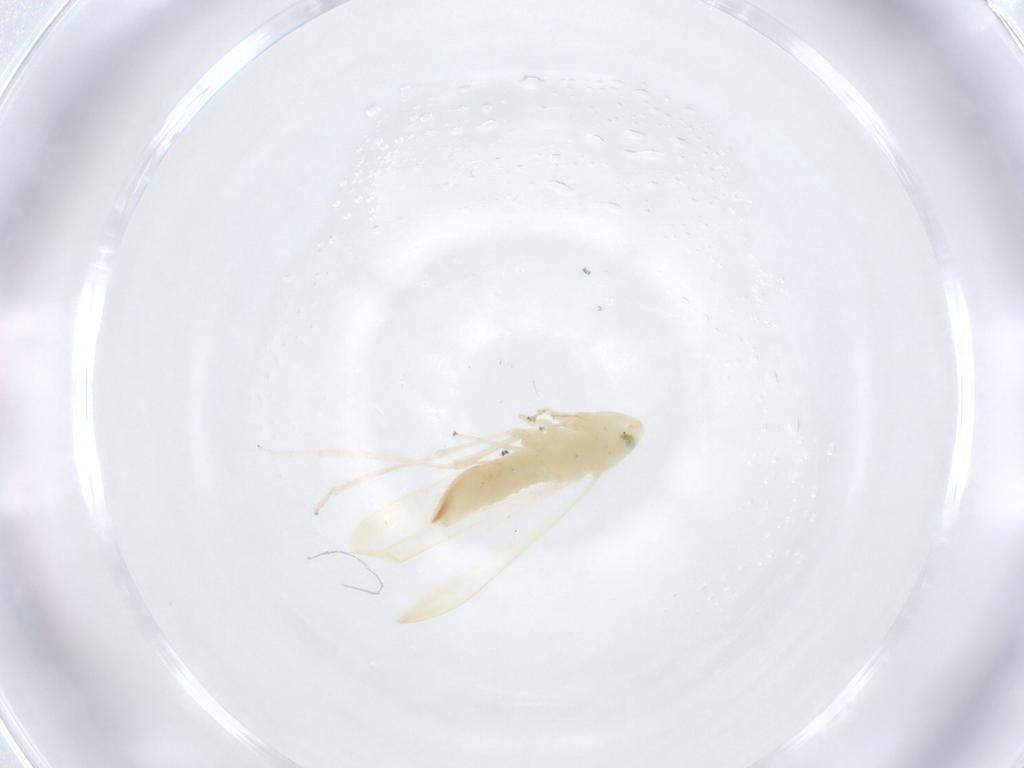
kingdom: Animalia
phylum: Arthropoda
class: Insecta
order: Hemiptera
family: Cicadellidae
